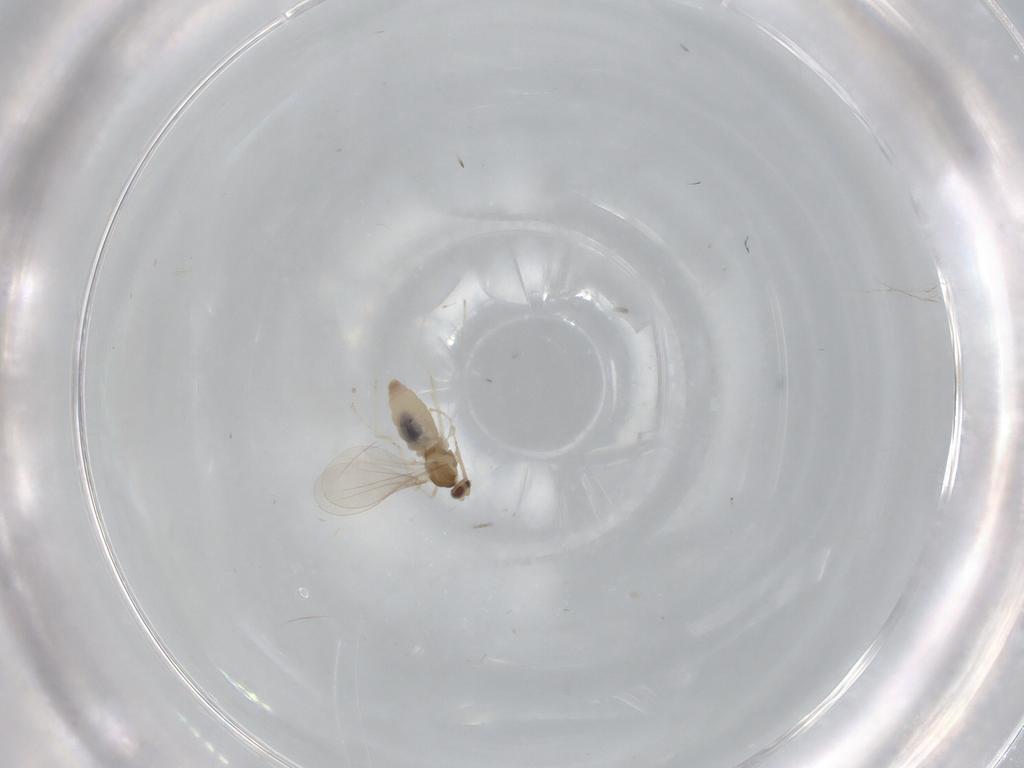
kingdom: Animalia
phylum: Arthropoda
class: Insecta
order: Diptera
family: Cecidomyiidae
